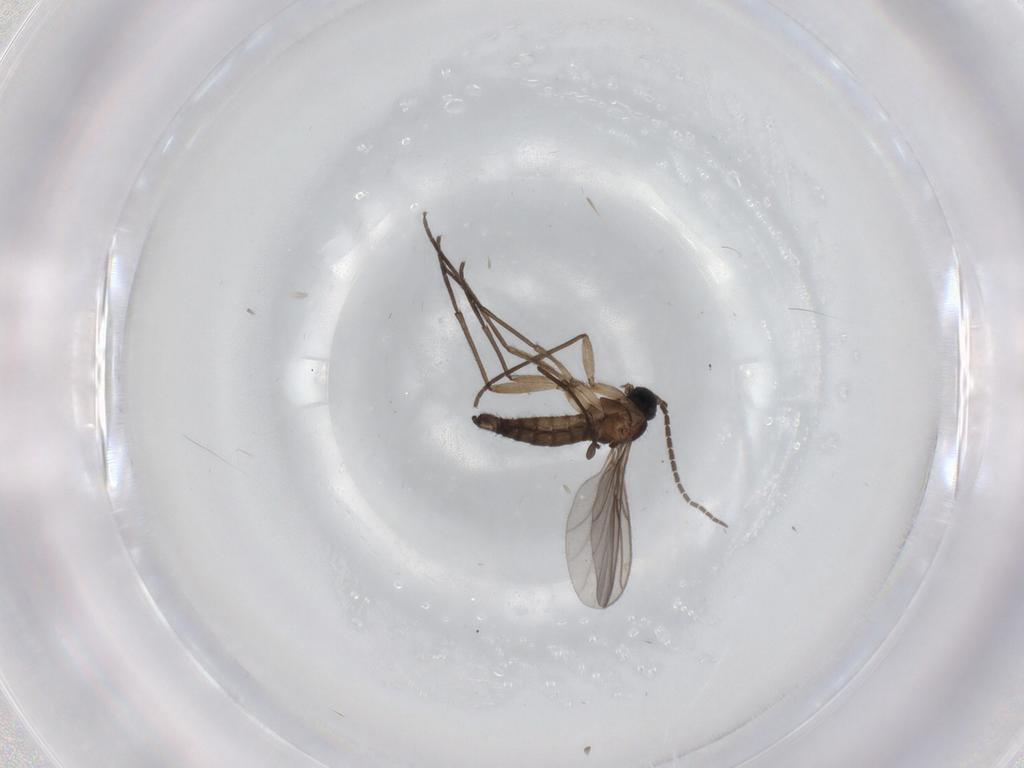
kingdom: Animalia
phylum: Arthropoda
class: Insecta
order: Diptera
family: Sciaridae
